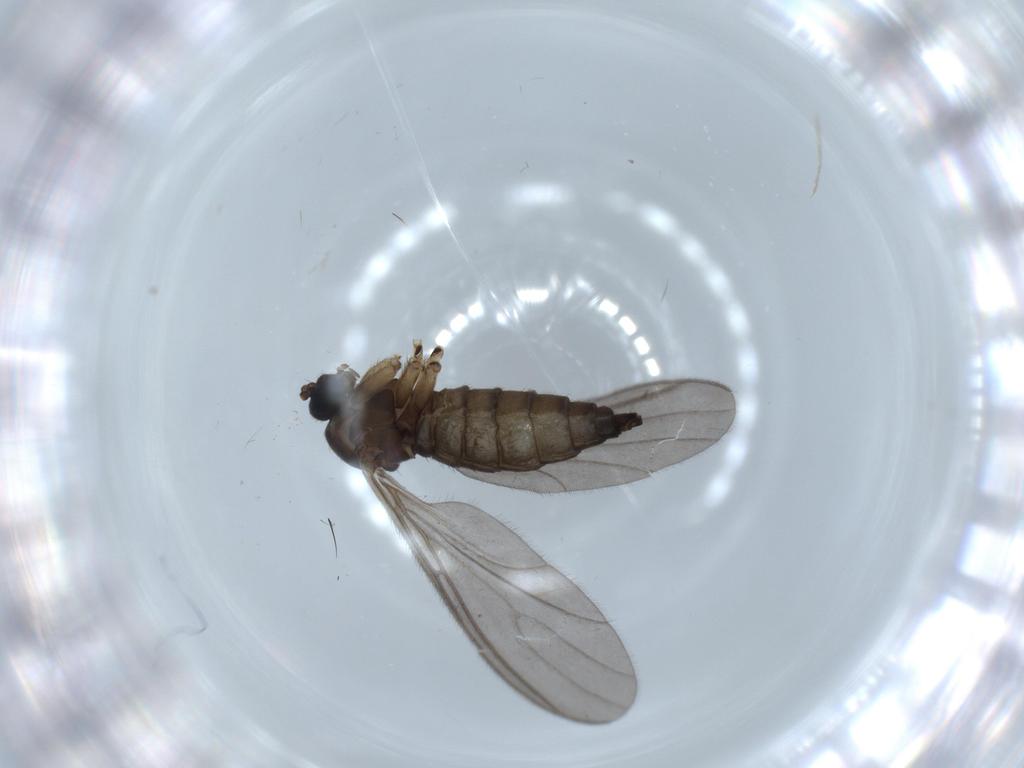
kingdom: Animalia
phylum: Arthropoda
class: Insecta
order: Diptera
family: Sciaridae
